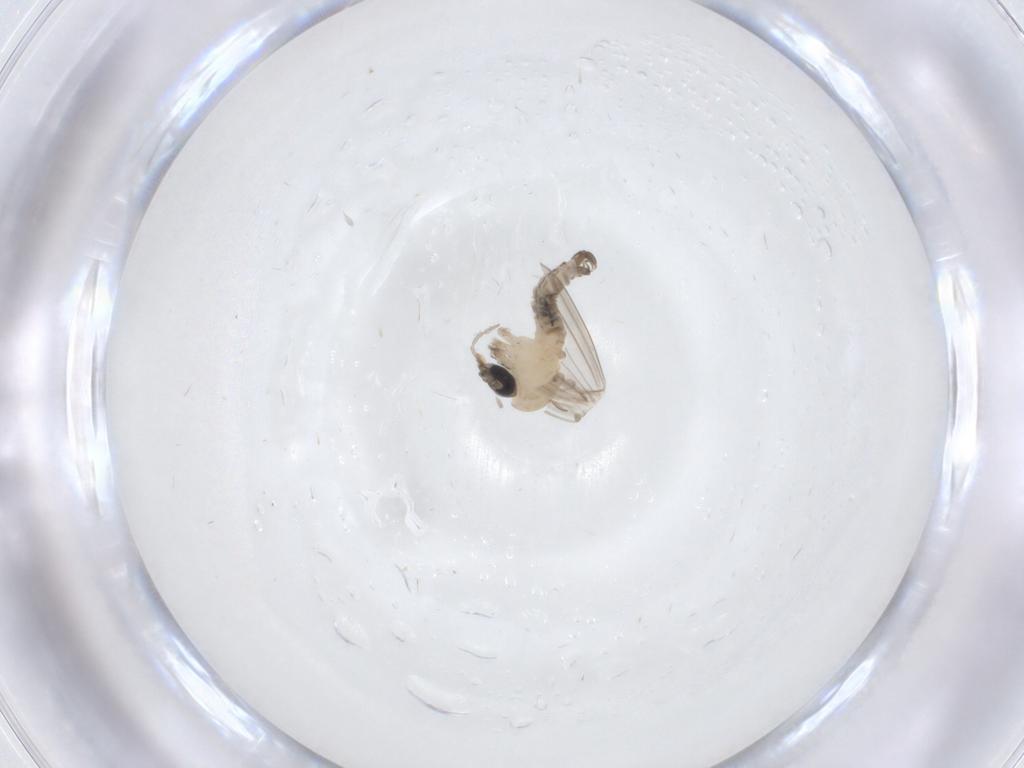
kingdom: Animalia
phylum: Arthropoda
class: Insecta
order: Diptera
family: Psychodidae
